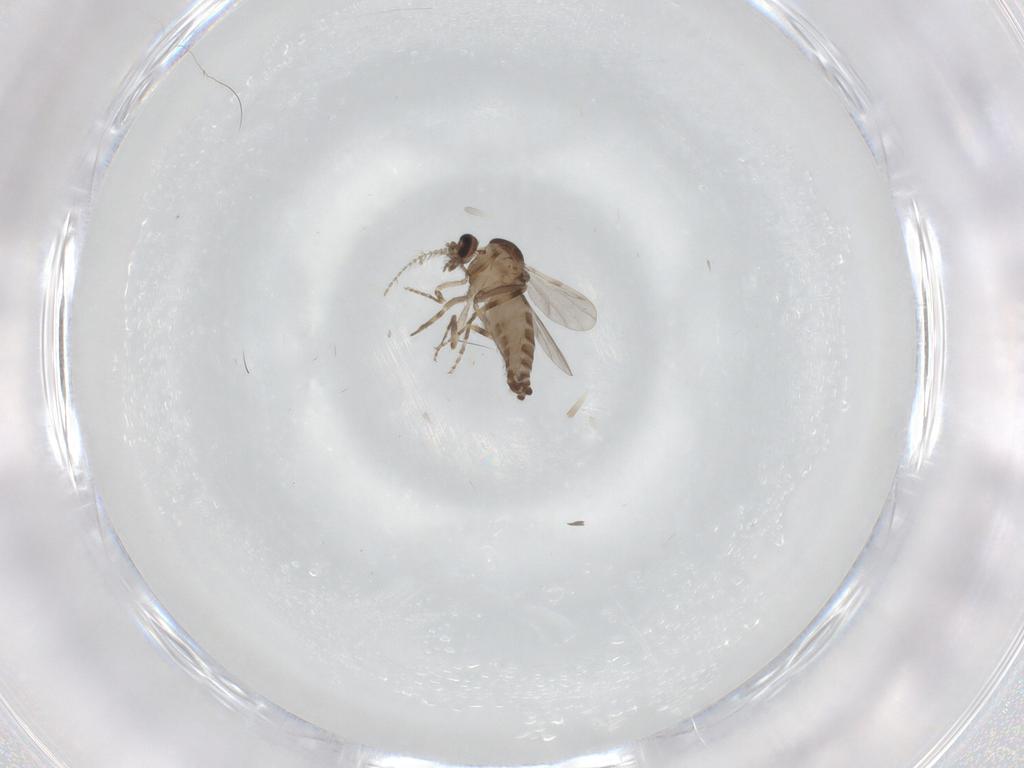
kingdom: Animalia
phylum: Arthropoda
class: Insecta
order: Diptera
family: Ceratopogonidae
